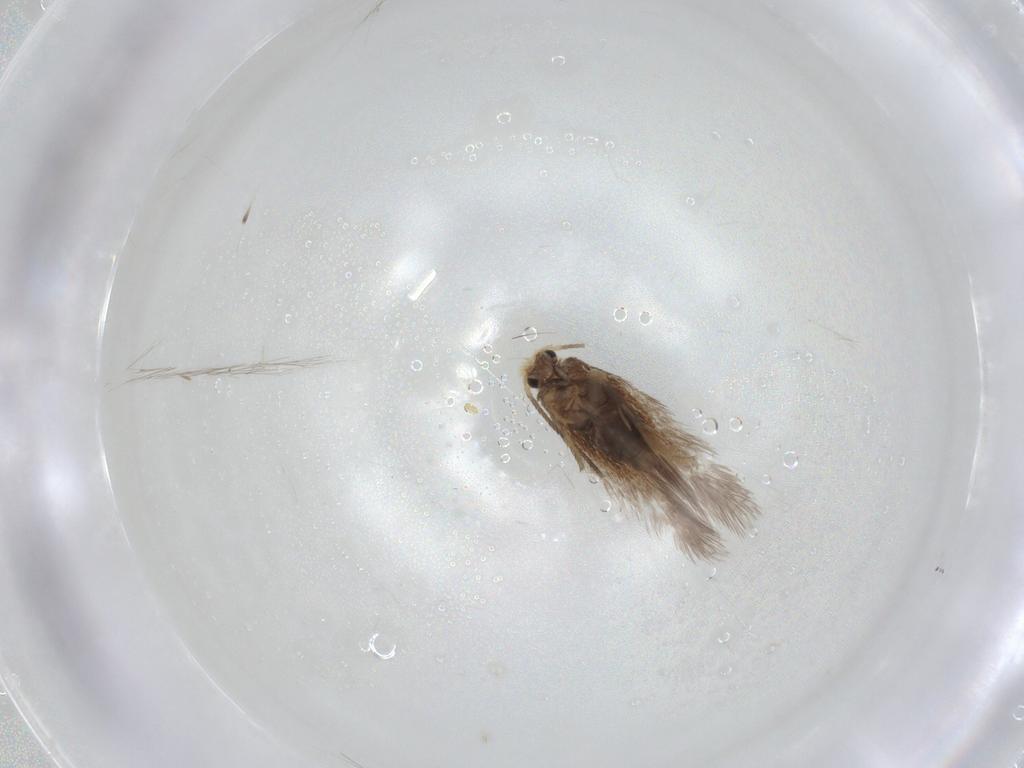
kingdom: Animalia
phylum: Arthropoda
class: Insecta
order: Lepidoptera
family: Nepticulidae
